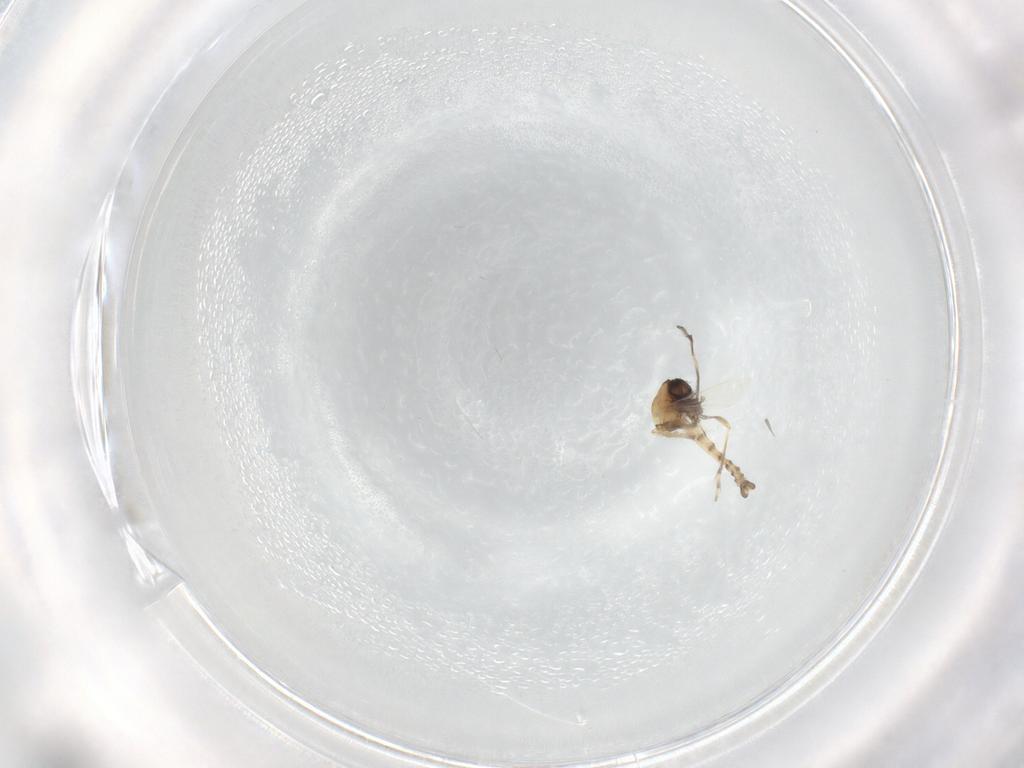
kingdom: Animalia
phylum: Arthropoda
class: Insecta
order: Diptera
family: Ceratopogonidae
